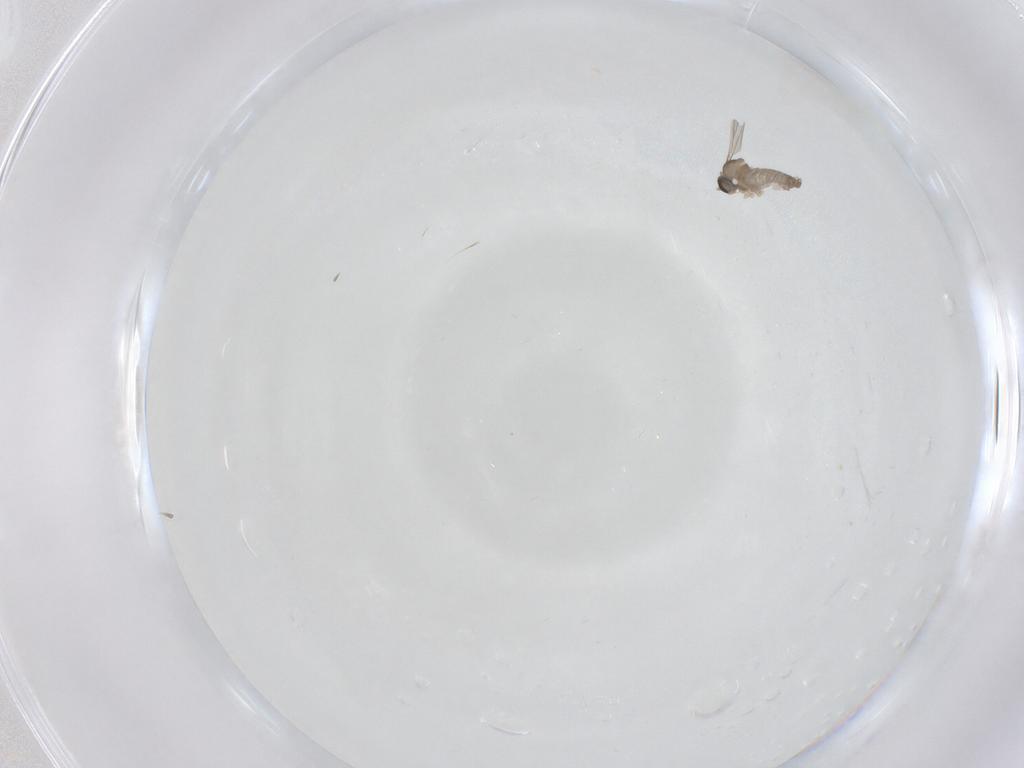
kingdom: Animalia
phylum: Arthropoda
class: Insecta
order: Diptera
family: Cecidomyiidae
